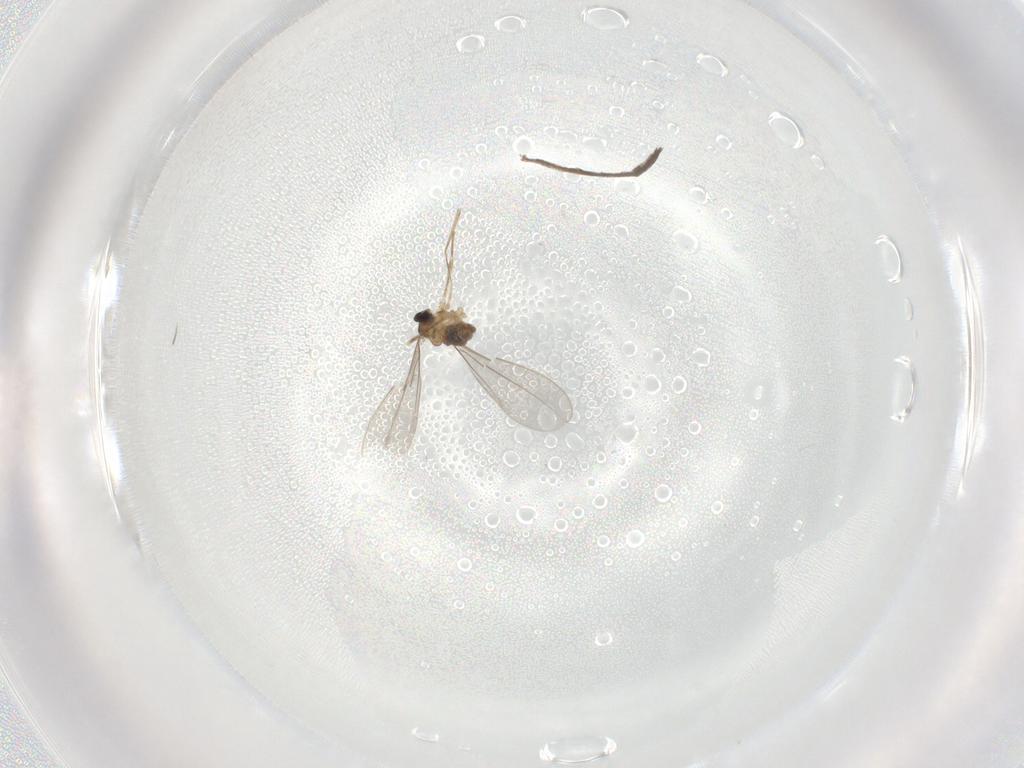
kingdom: Animalia
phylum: Arthropoda
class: Insecta
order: Diptera
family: Cecidomyiidae
